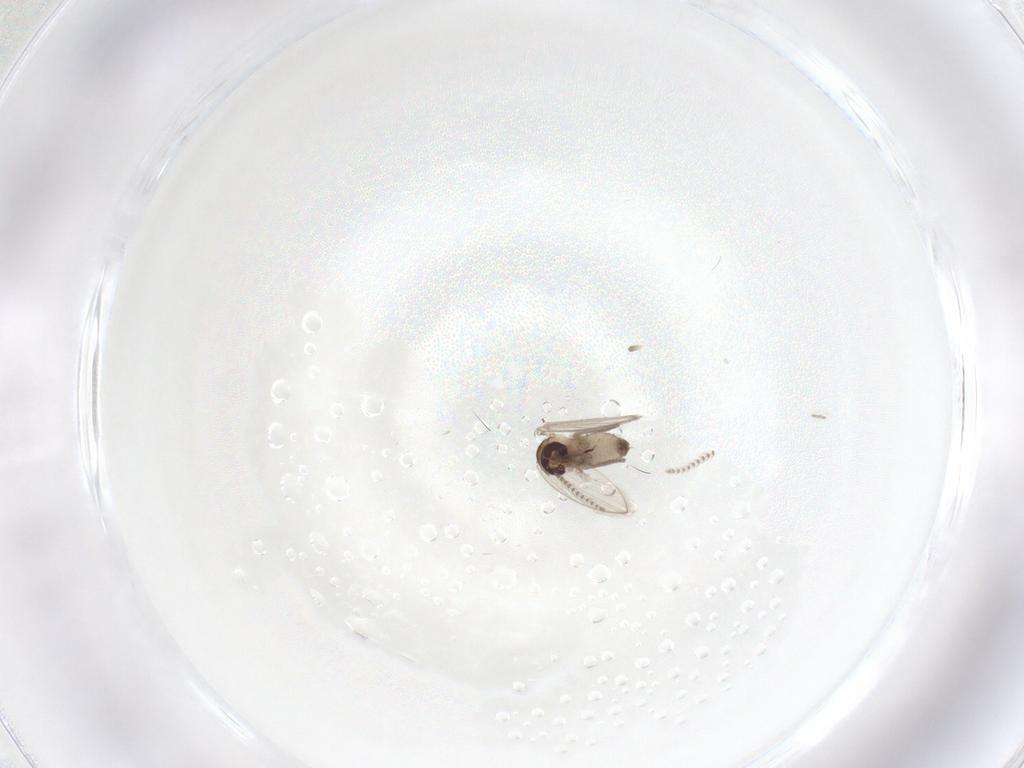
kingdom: Animalia
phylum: Arthropoda
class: Insecta
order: Diptera
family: Psychodidae
